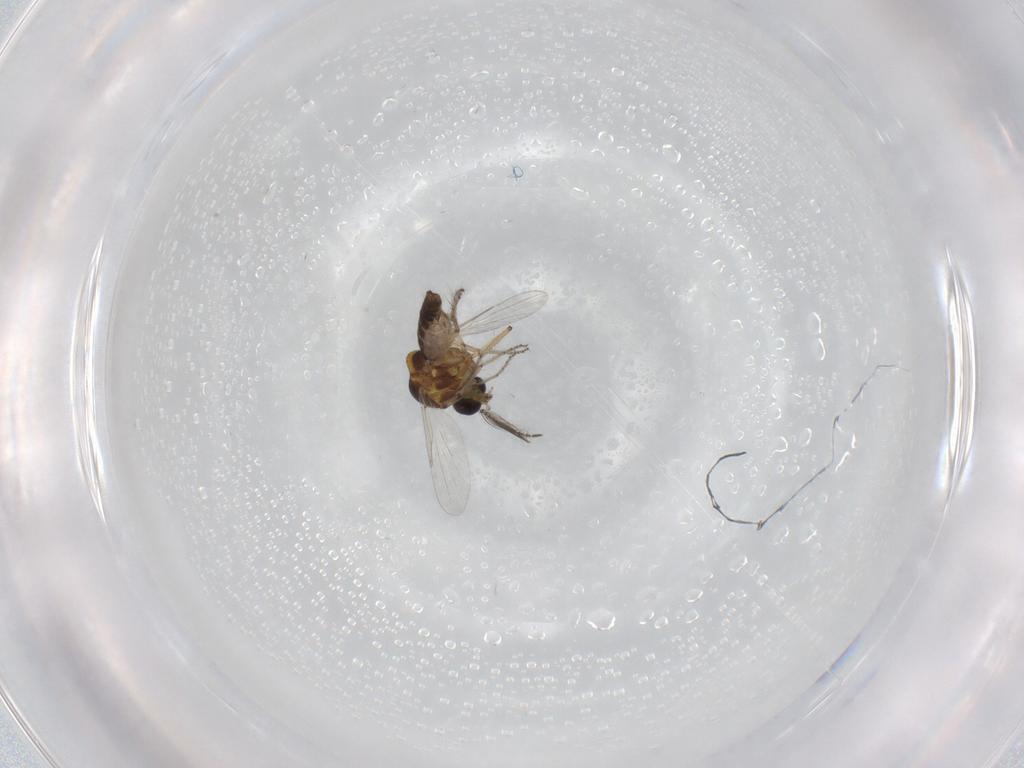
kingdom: Animalia
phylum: Arthropoda
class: Insecta
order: Diptera
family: Ceratopogonidae
